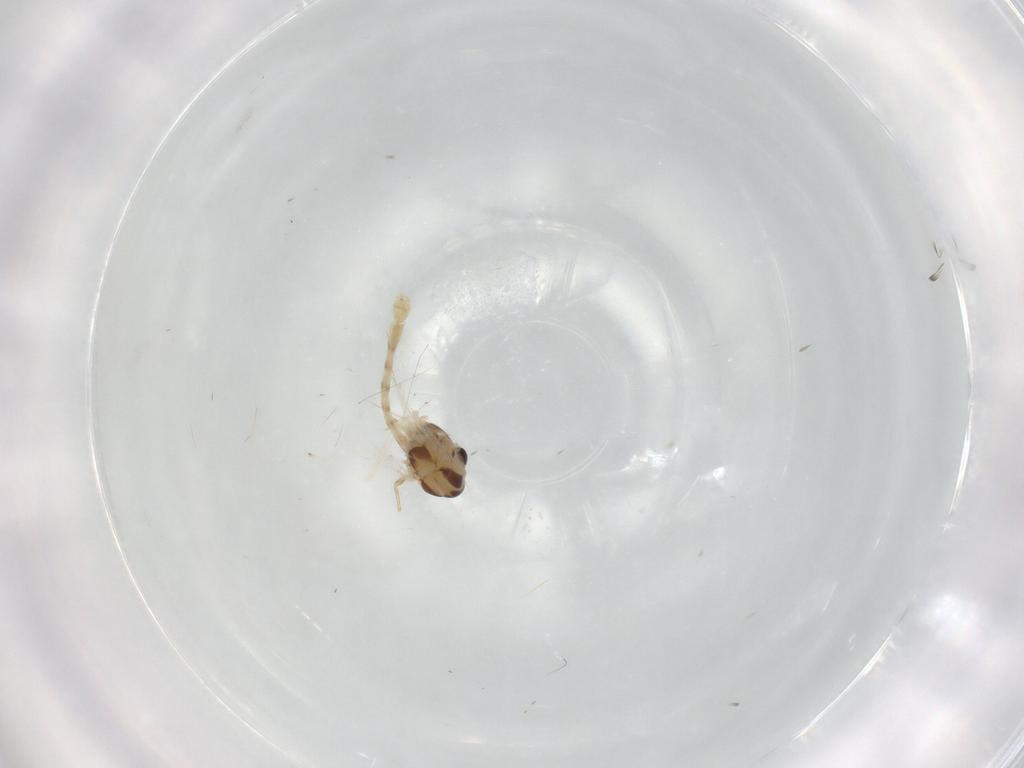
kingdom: Animalia
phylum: Arthropoda
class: Insecta
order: Diptera
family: Chironomidae
